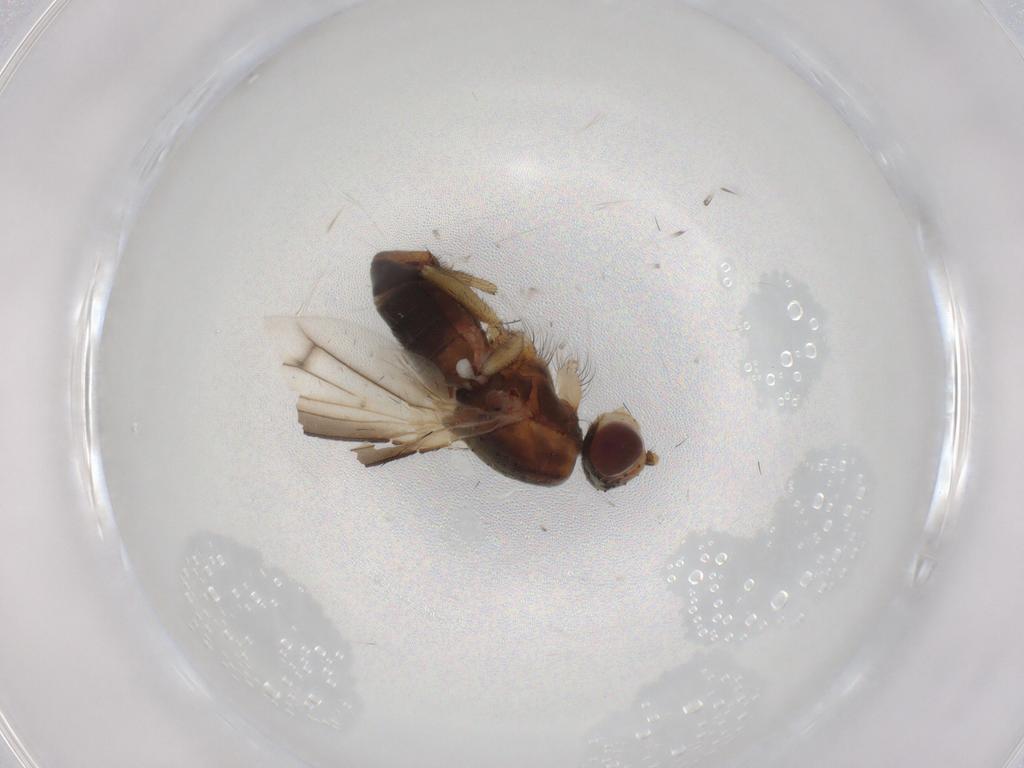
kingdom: Animalia
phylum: Arthropoda
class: Insecta
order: Diptera
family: Heleomyzidae
